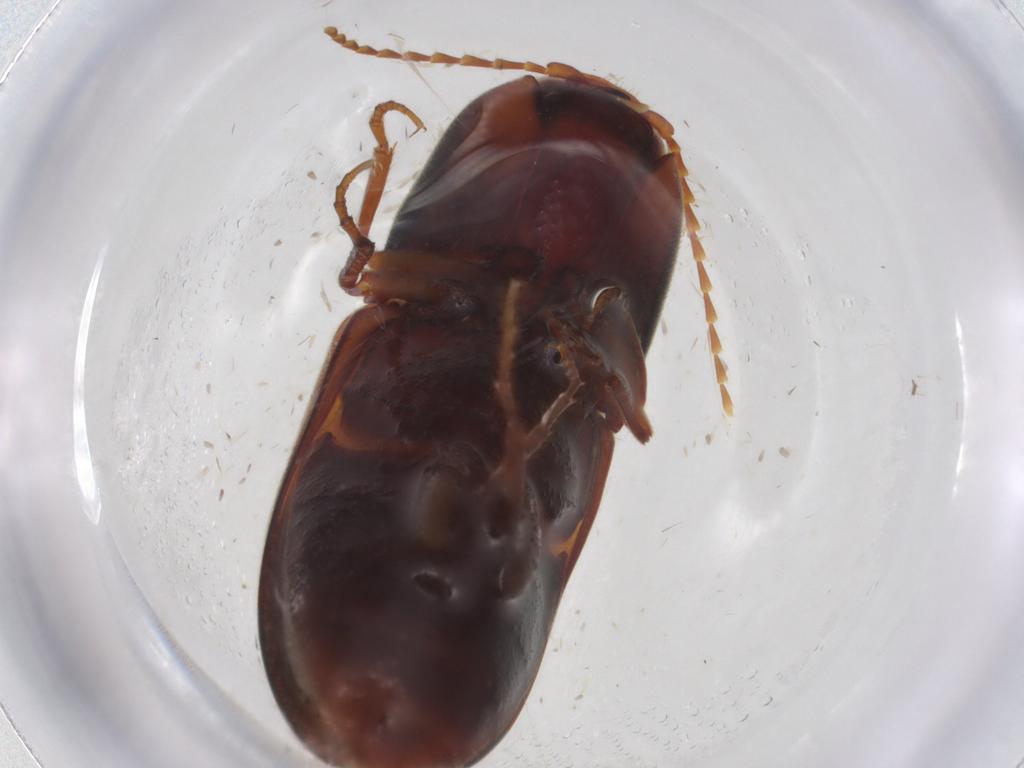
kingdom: Animalia
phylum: Arthropoda
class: Insecta
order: Coleoptera
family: Elateridae
